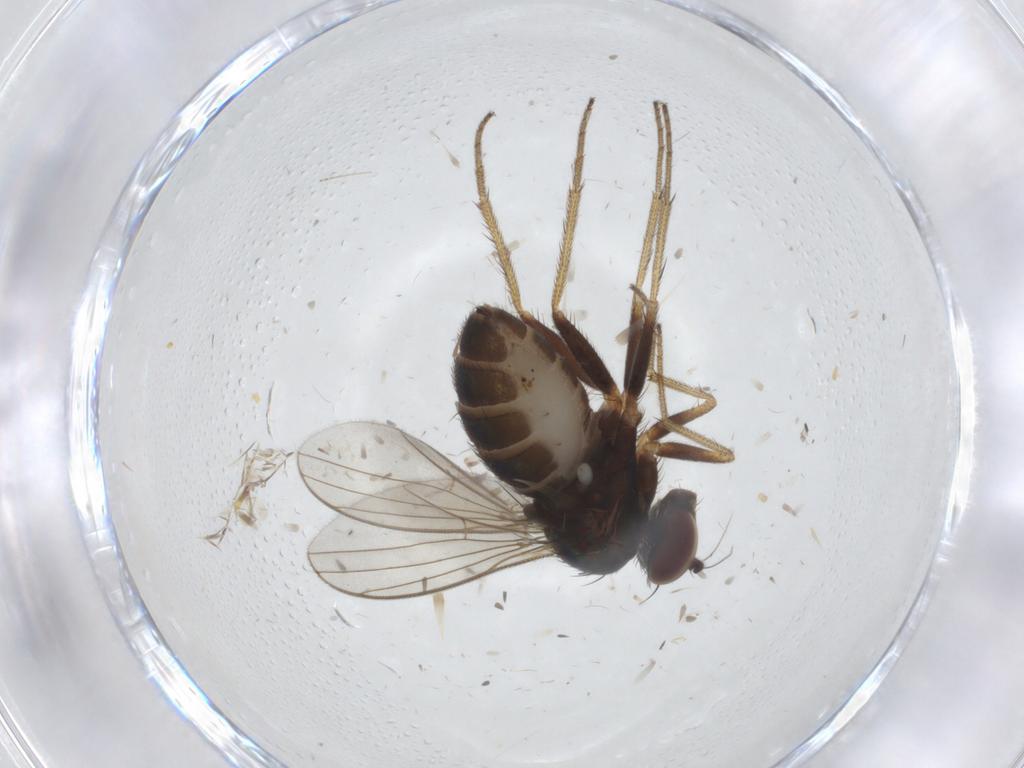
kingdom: Animalia
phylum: Arthropoda
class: Insecta
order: Diptera
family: Dolichopodidae
